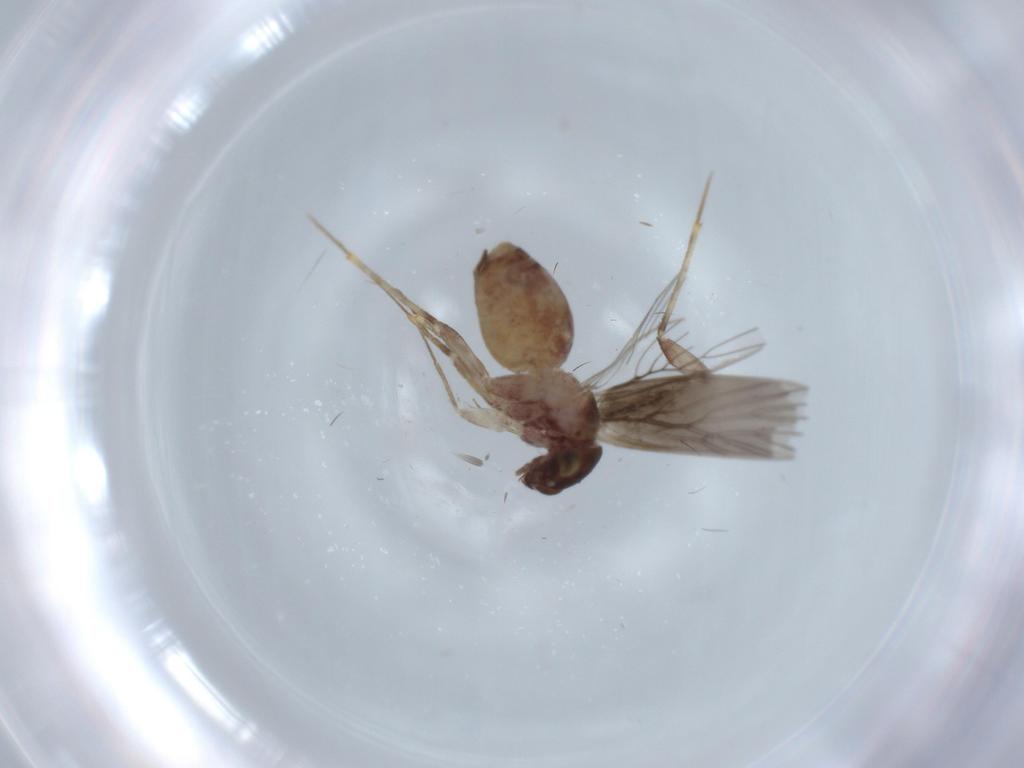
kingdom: Animalia
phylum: Arthropoda
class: Insecta
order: Psocodea
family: Lepidopsocidae
